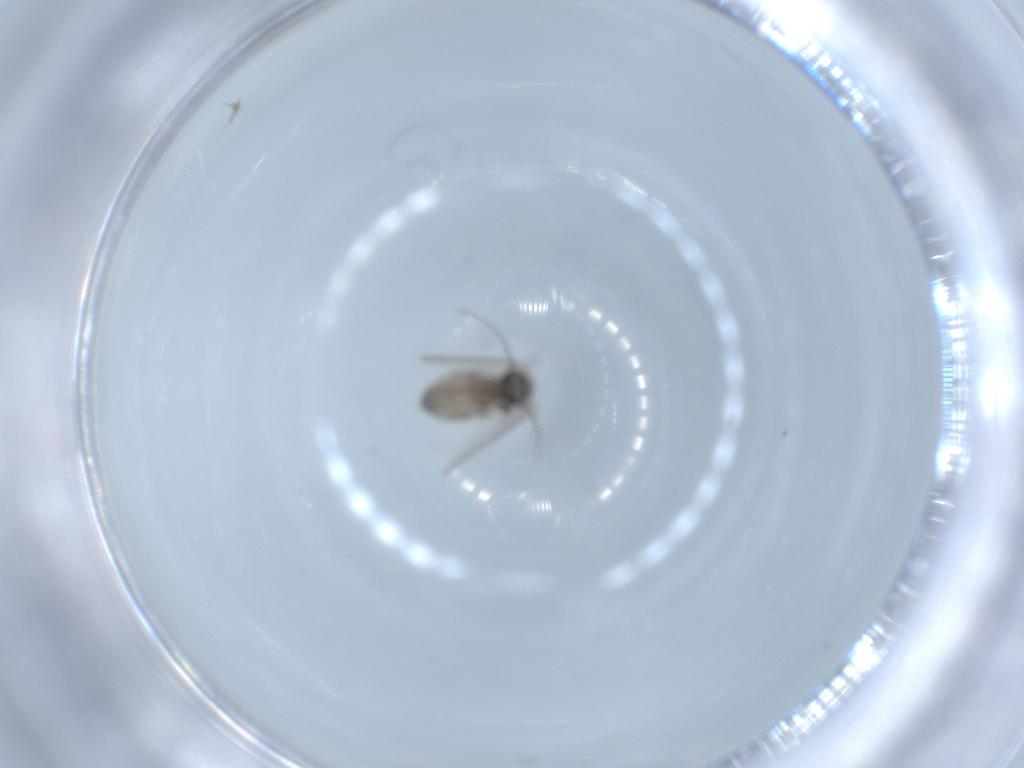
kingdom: Animalia
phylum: Arthropoda
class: Insecta
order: Diptera
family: Psychodidae
